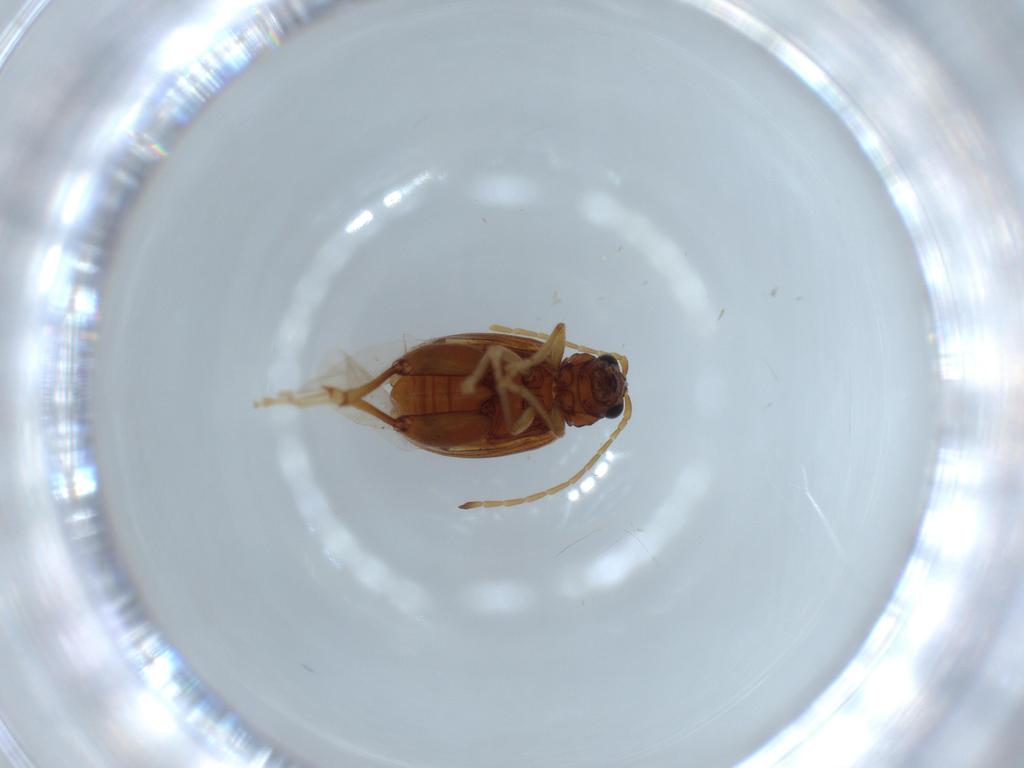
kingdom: Animalia
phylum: Arthropoda
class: Insecta
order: Coleoptera
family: Chrysomelidae
